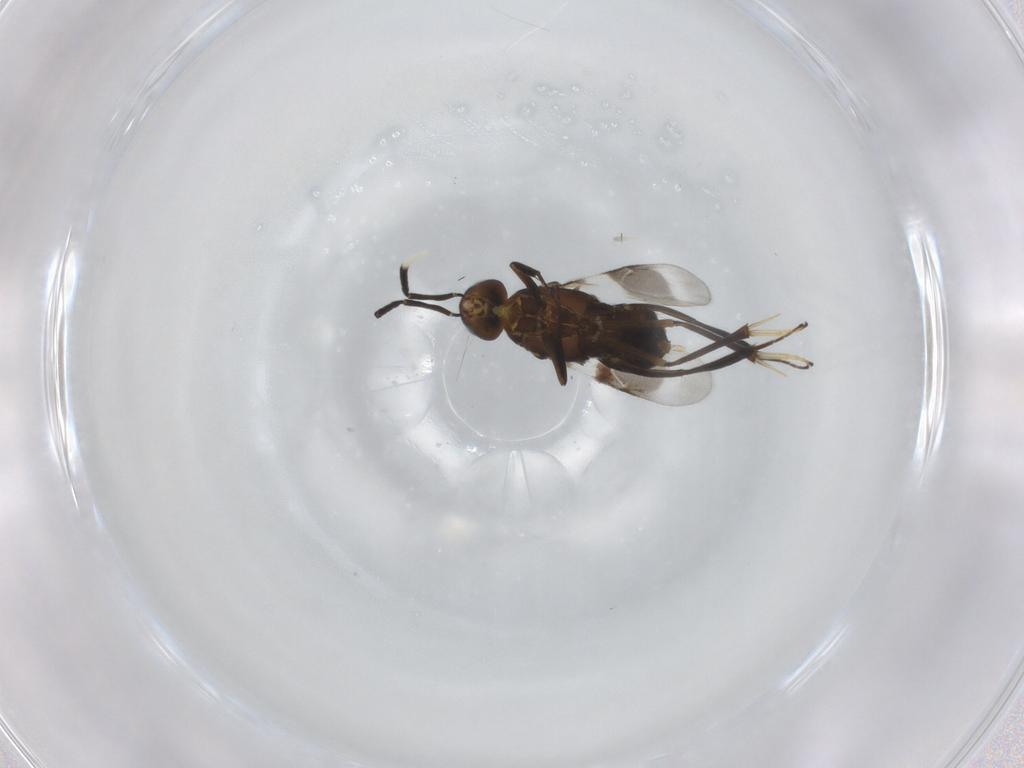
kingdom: Animalia
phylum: Arthropoda
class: Insecta
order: Hymenoptera
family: Encyrtidae
